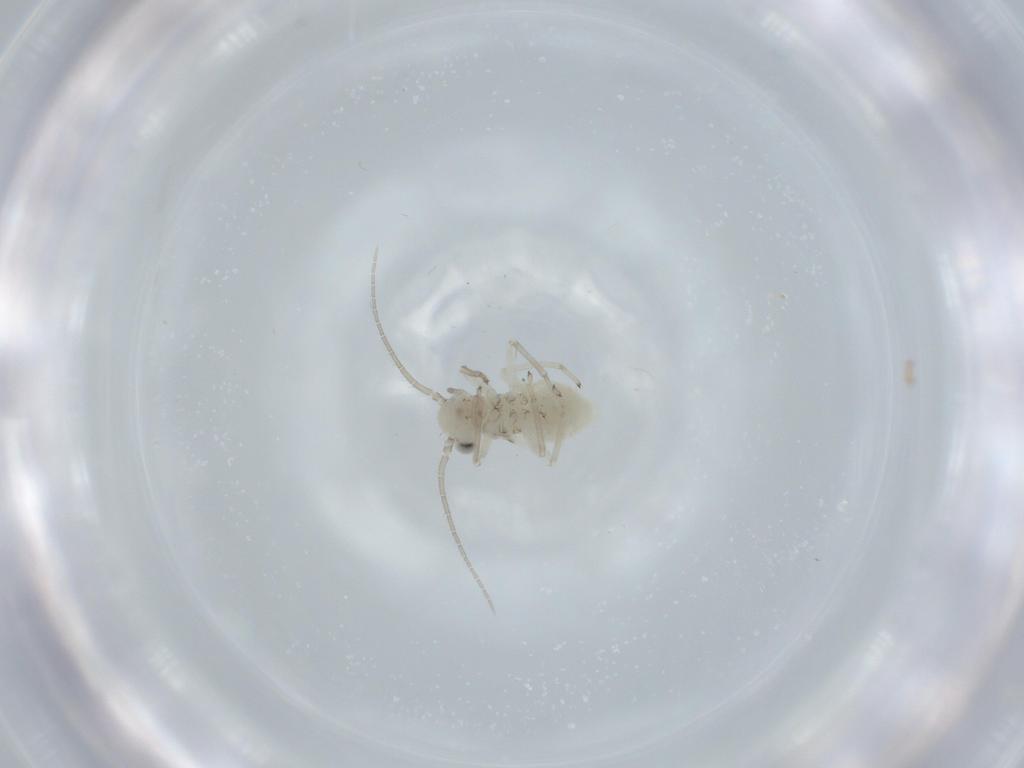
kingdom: Animalia
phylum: Arthropoda
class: Insecta
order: Psocodea
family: Caeciliusidae
